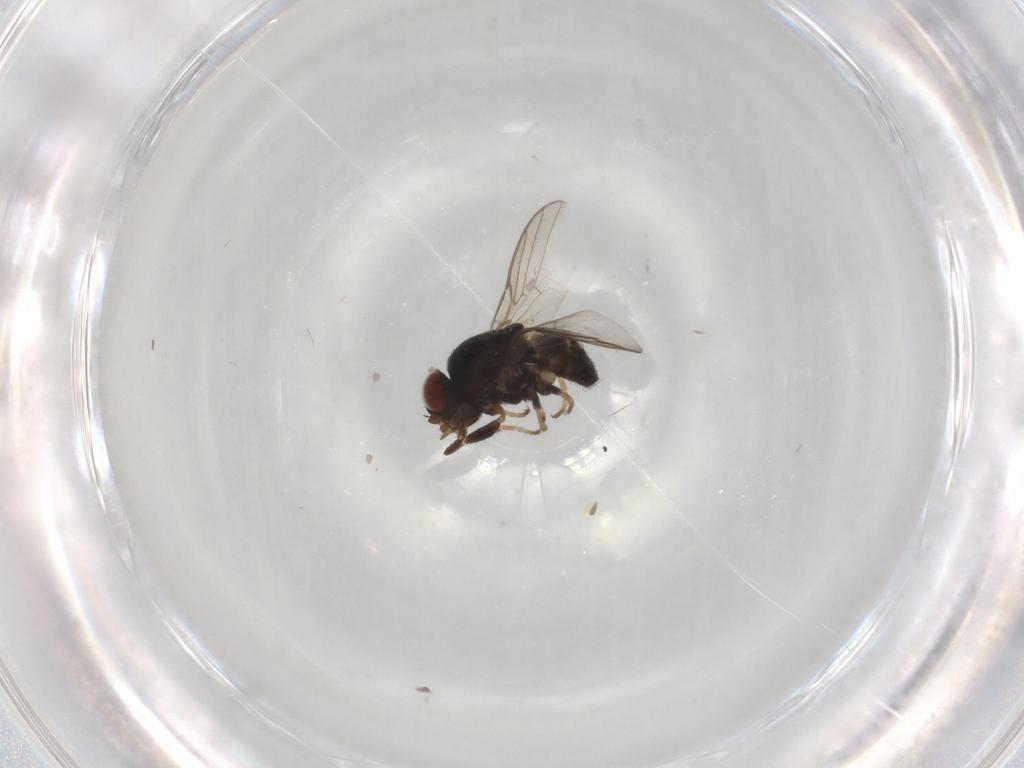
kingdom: Animalia
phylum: Arthropoda
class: Insecta
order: Diptera
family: Chloropidae
